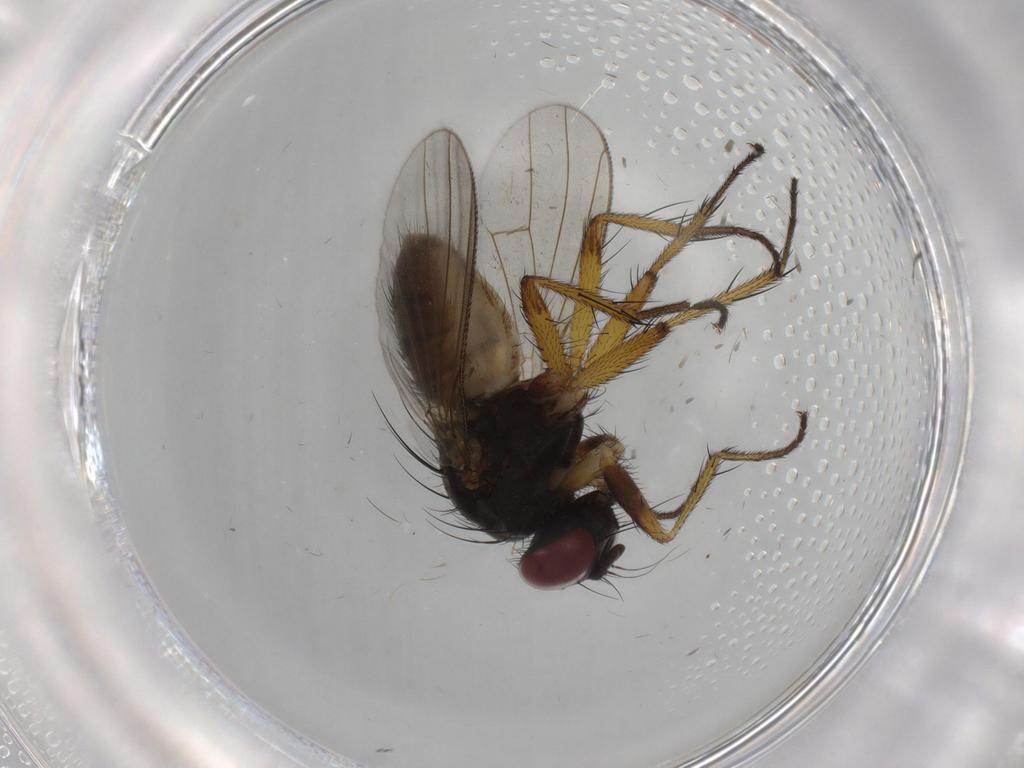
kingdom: Animalia
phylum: Arthropoda
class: Insecta
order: Diptera
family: Muscidae
